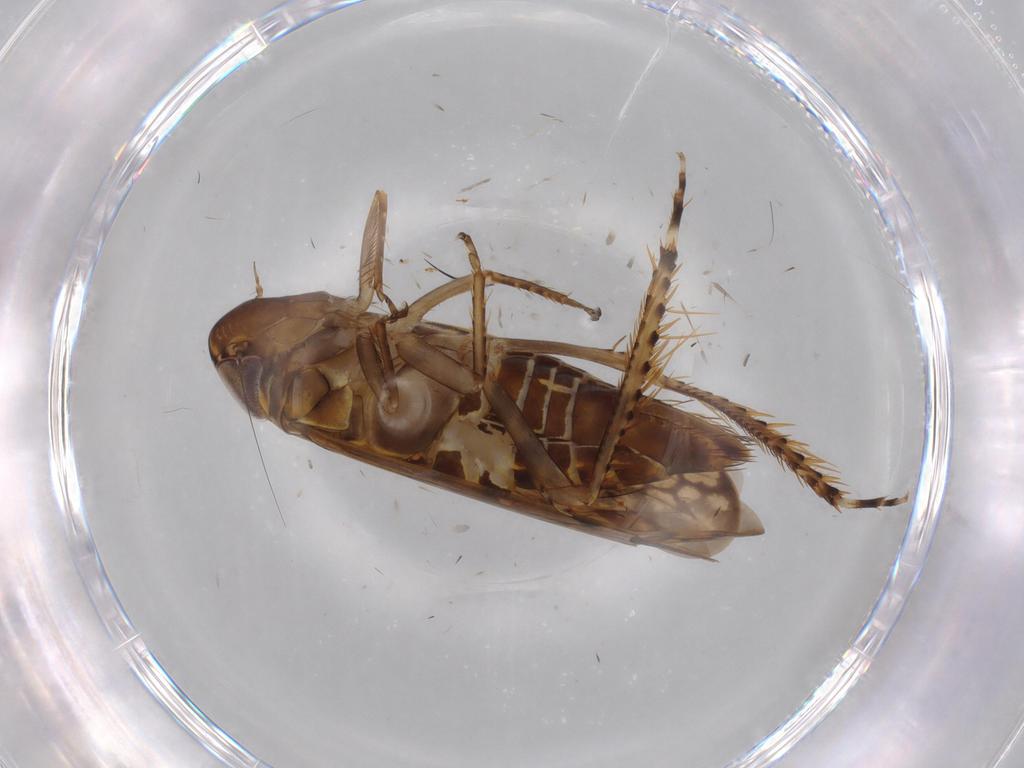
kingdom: Animalia
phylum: Arthropoda
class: Insecta
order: Hemiptera
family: Cicadellidae
